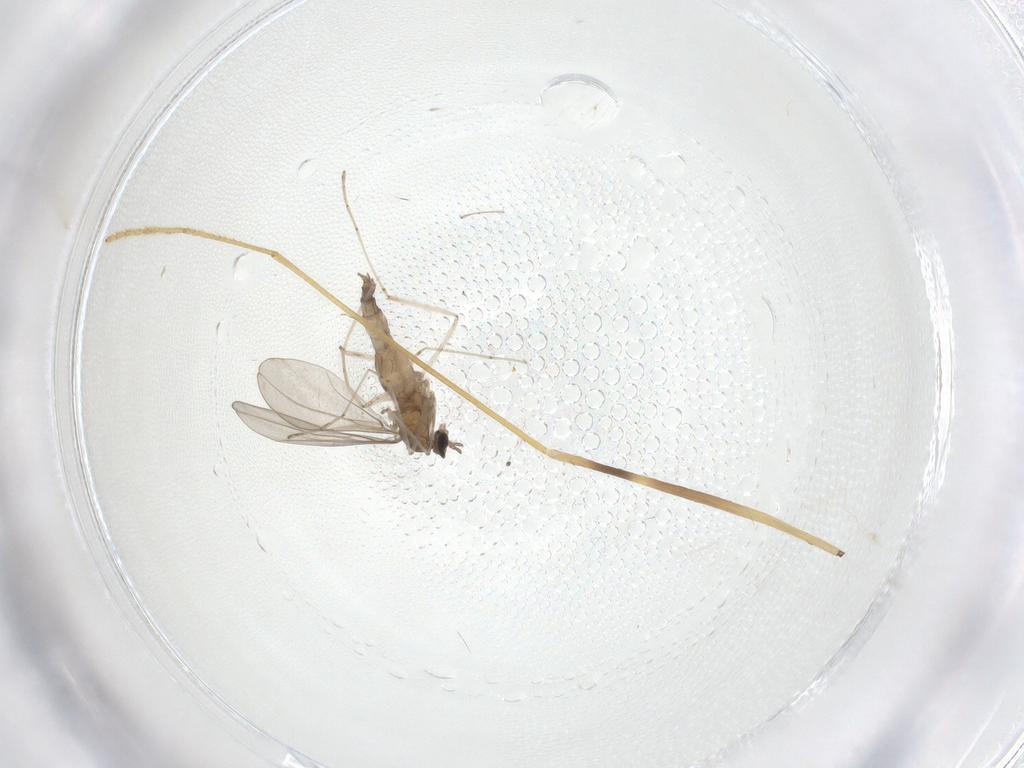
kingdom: Animalia
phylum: Arthropoda
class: Insecta
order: Diptera
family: Limoniidae
